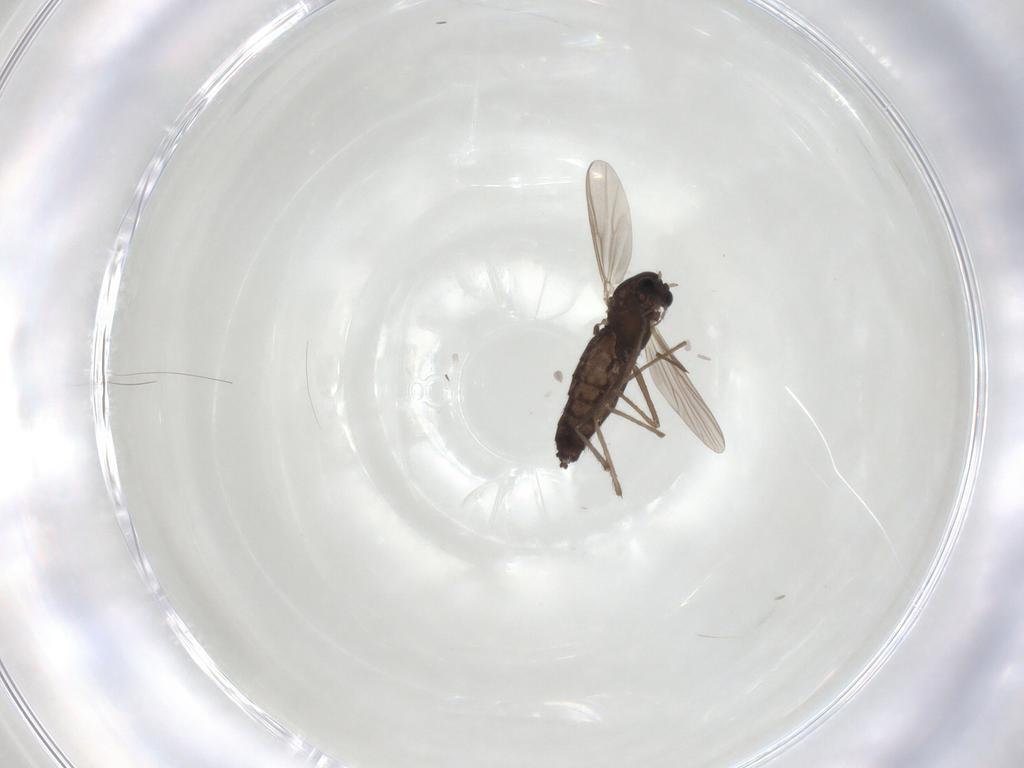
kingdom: Animalia
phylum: Arthropoda
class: Insecta
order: Diptera
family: Chironomidae
